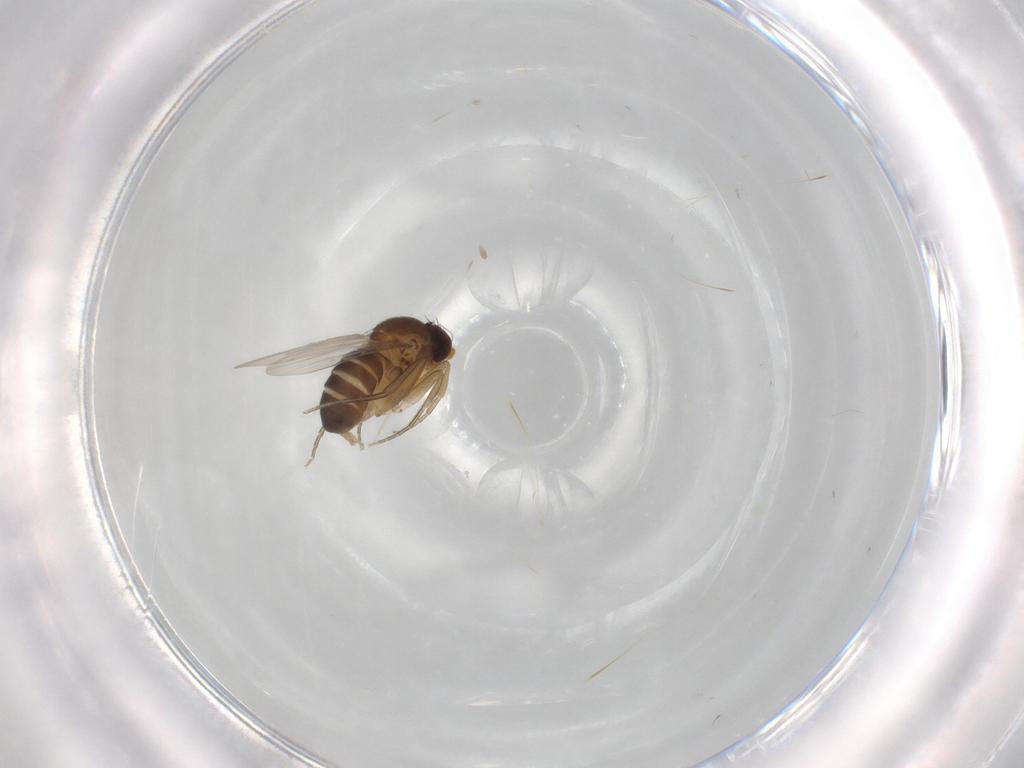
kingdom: Animalia
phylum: Arthropoda
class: Insecta
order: Diptera
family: Phoridae
